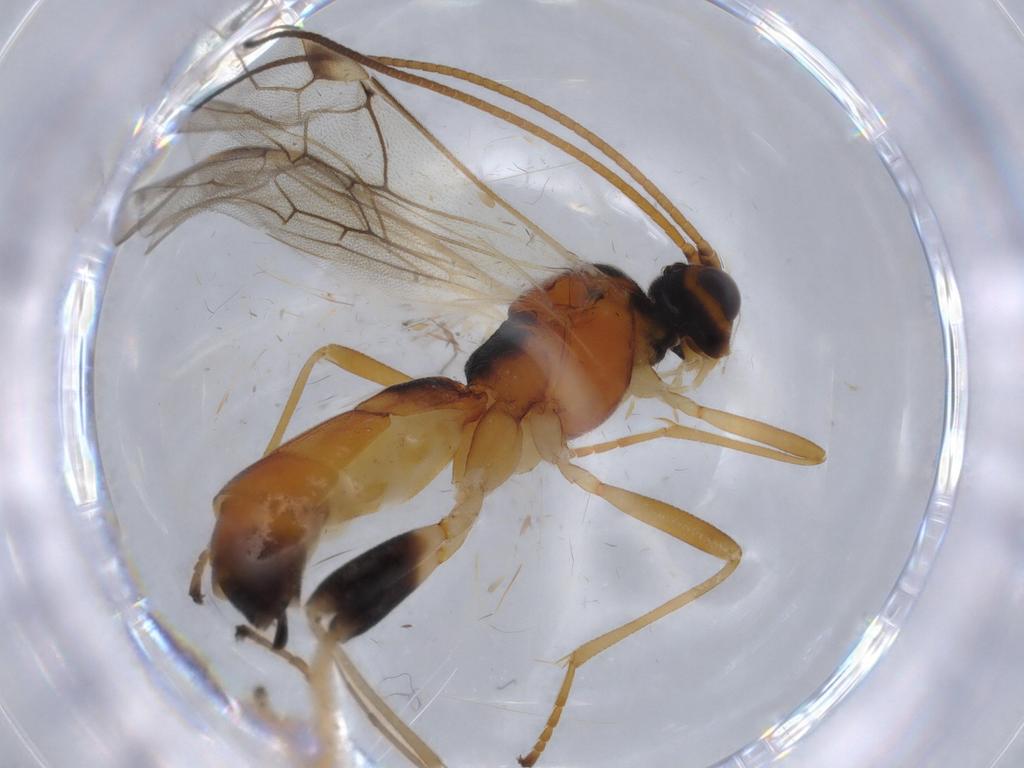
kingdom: Animalia
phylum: Arthropoda
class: Insecta
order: Hymenoptera
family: Braconidae
